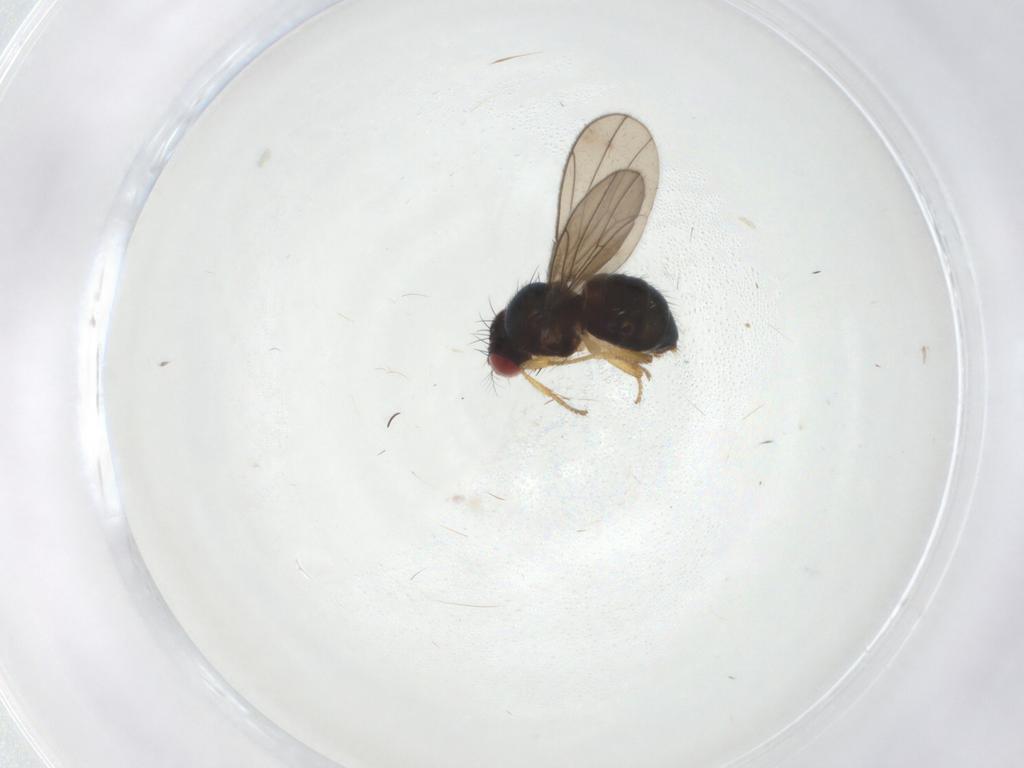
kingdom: Animalia
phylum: Arthropoda
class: Insecta
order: Diptera
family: Drosophilidae
